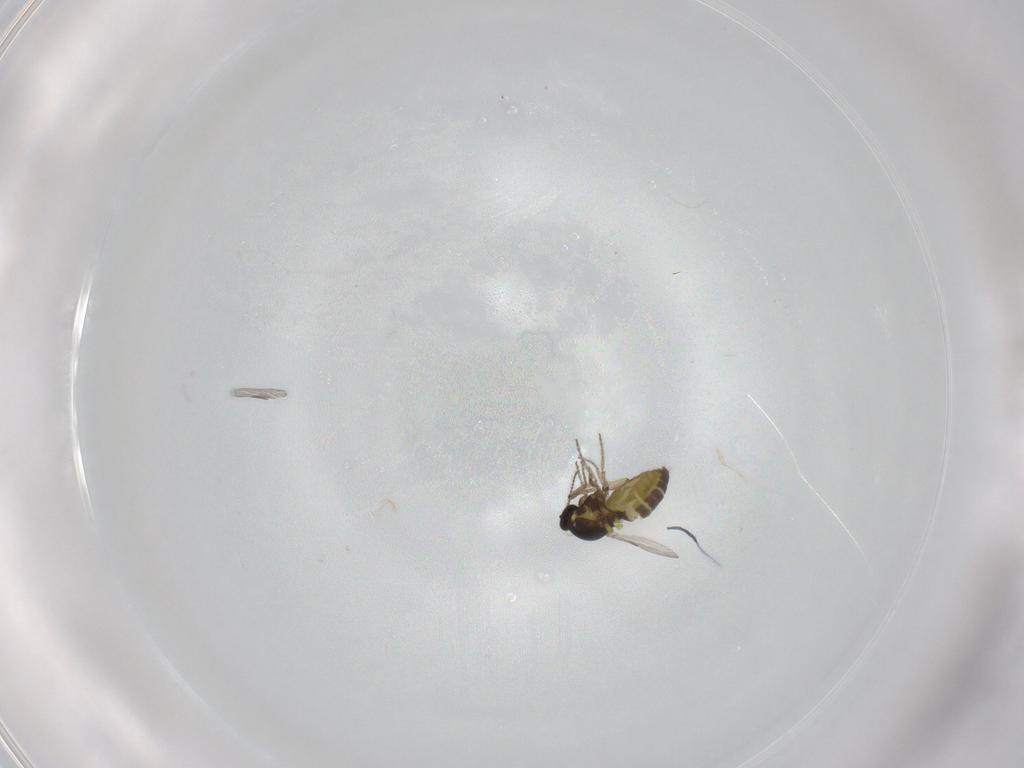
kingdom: Animalia
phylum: Arthropoda
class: Insecta
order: Diptera
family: Ceratopogonidae
